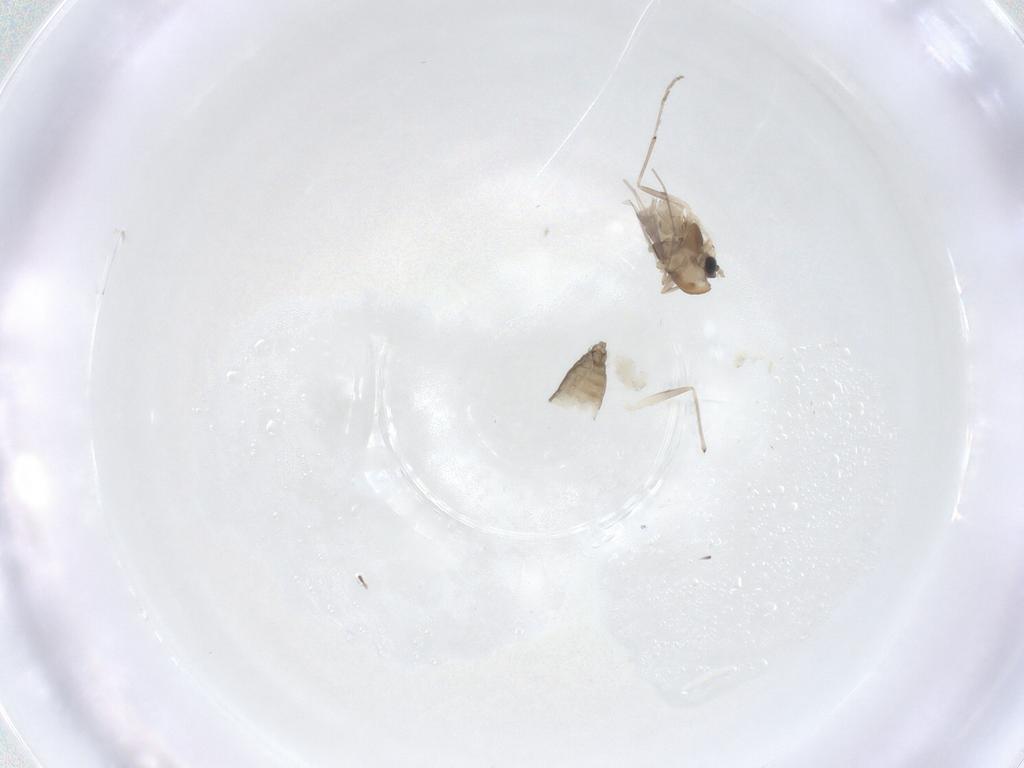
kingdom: Animalia
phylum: Arthropoda
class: Insecta
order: Diptera
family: Chironomidae
